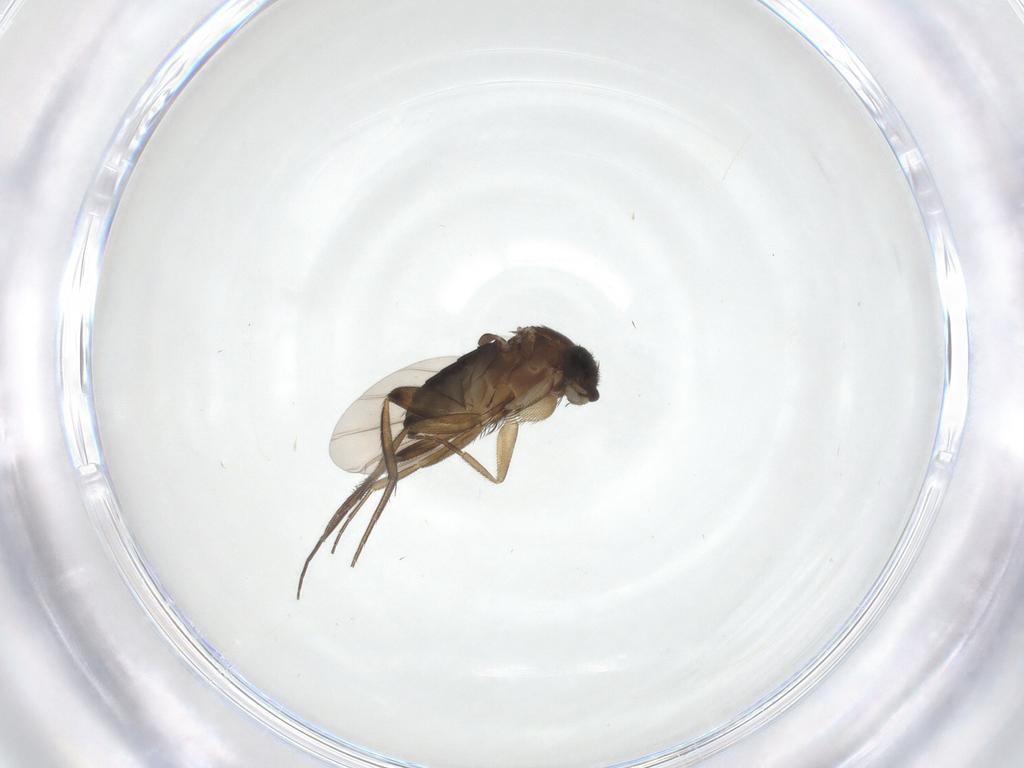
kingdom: Animalia
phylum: Arthropoda
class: Insecta
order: Diptera
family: Phoridae
